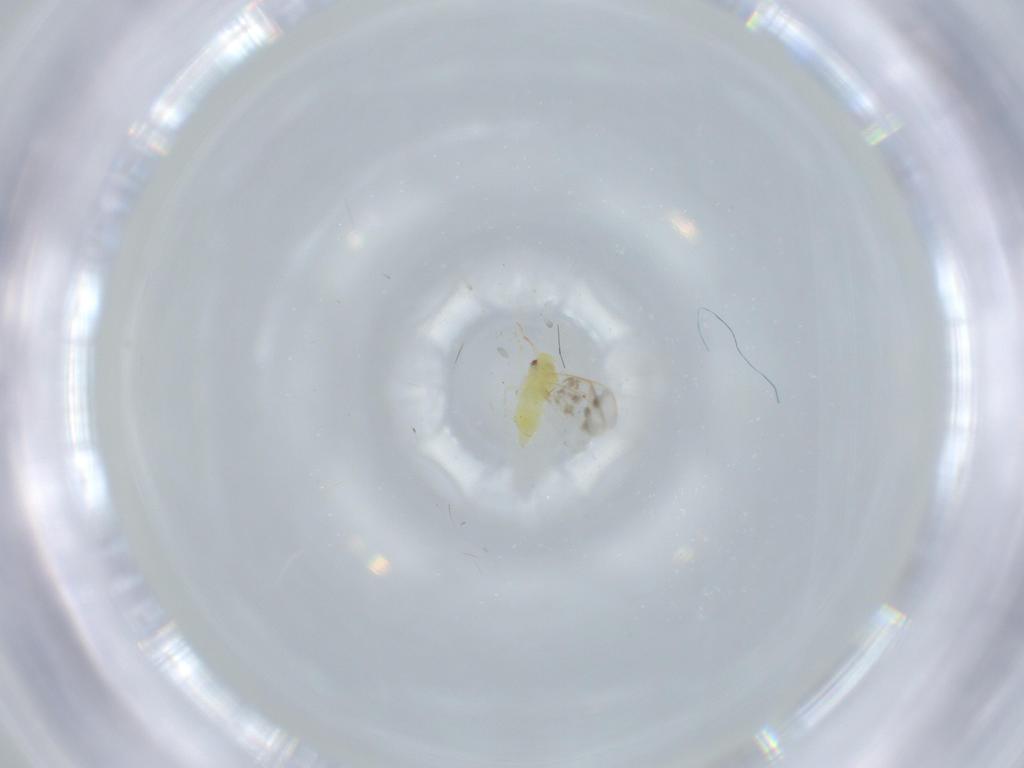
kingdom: Animalia
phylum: Arthropoda
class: Insecta
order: Hemiptera
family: Aleyrodidae
